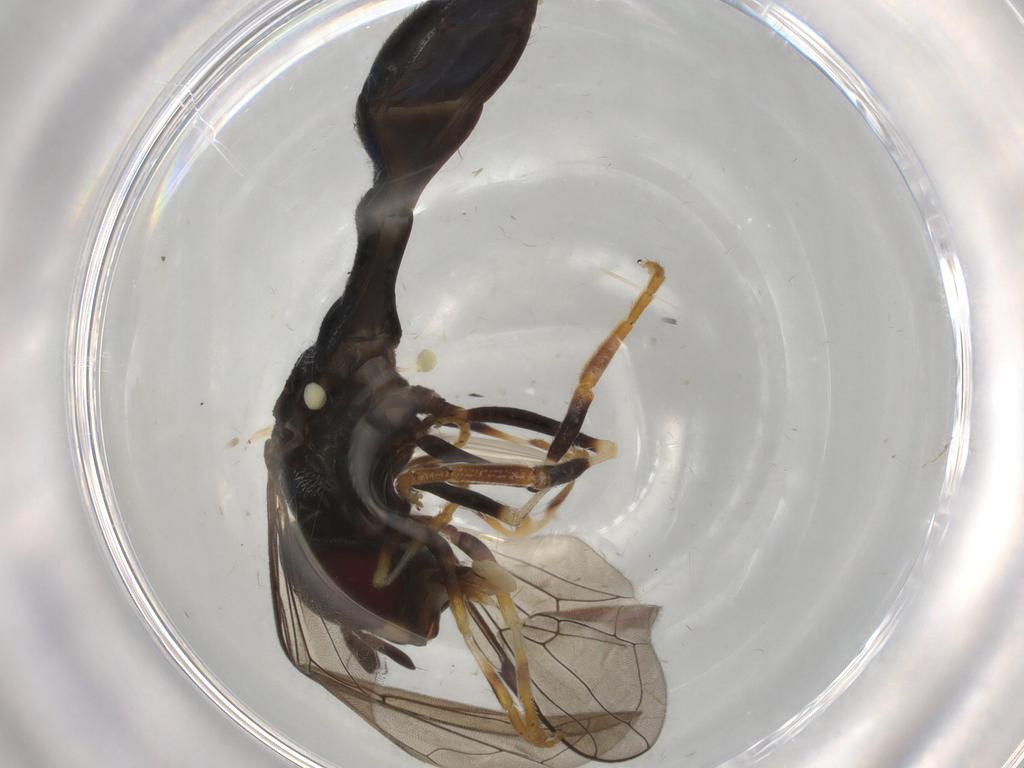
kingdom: Animalia
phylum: Arthropoda
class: Insecta
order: Diptera
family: Syrphidae
